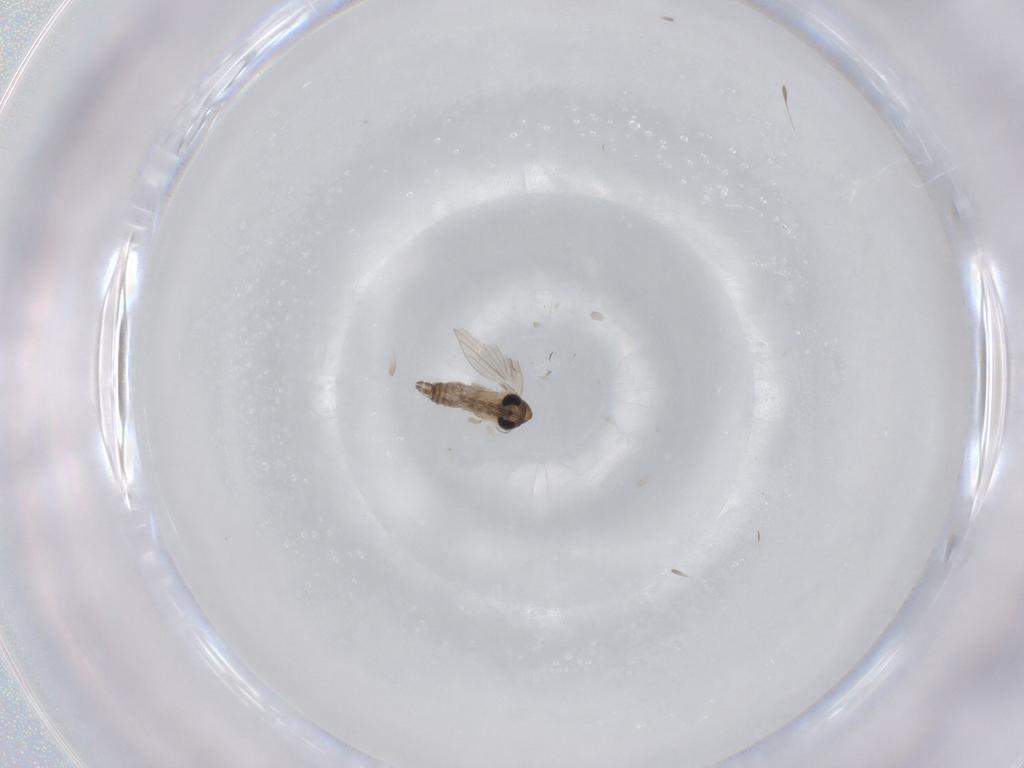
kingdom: Animalia
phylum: Arthropoda
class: Insecta
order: Diptera
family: Psychodidae
